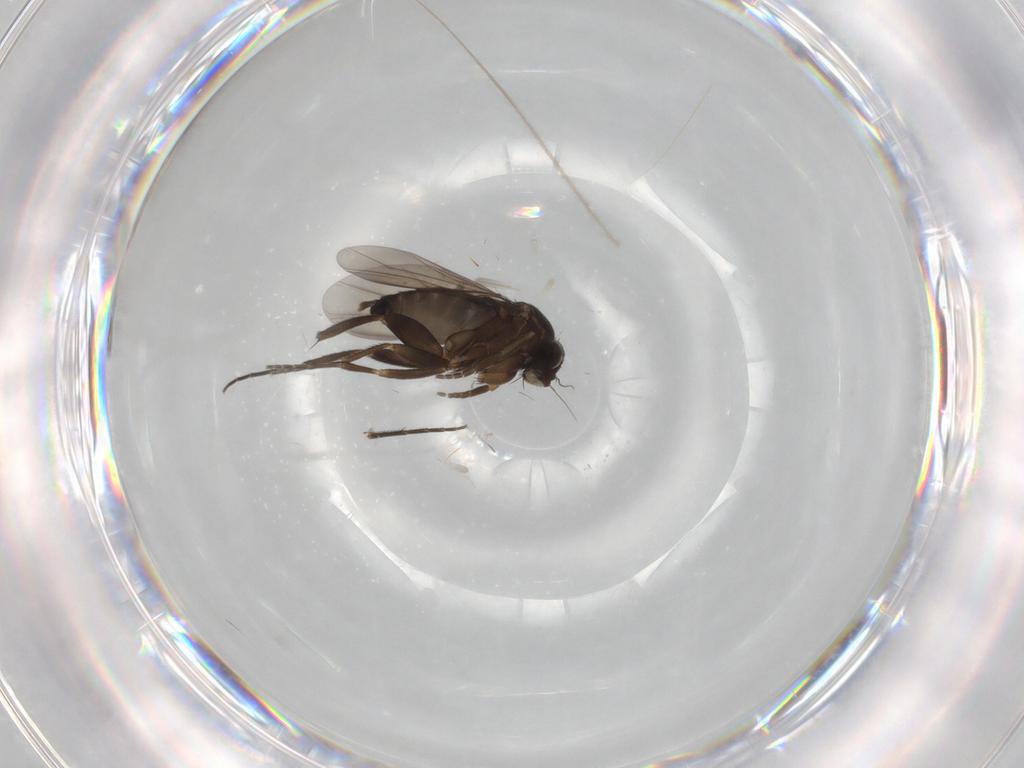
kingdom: Animalia
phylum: Arthropoda
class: Insecta
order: Diptera
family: Phoridae
